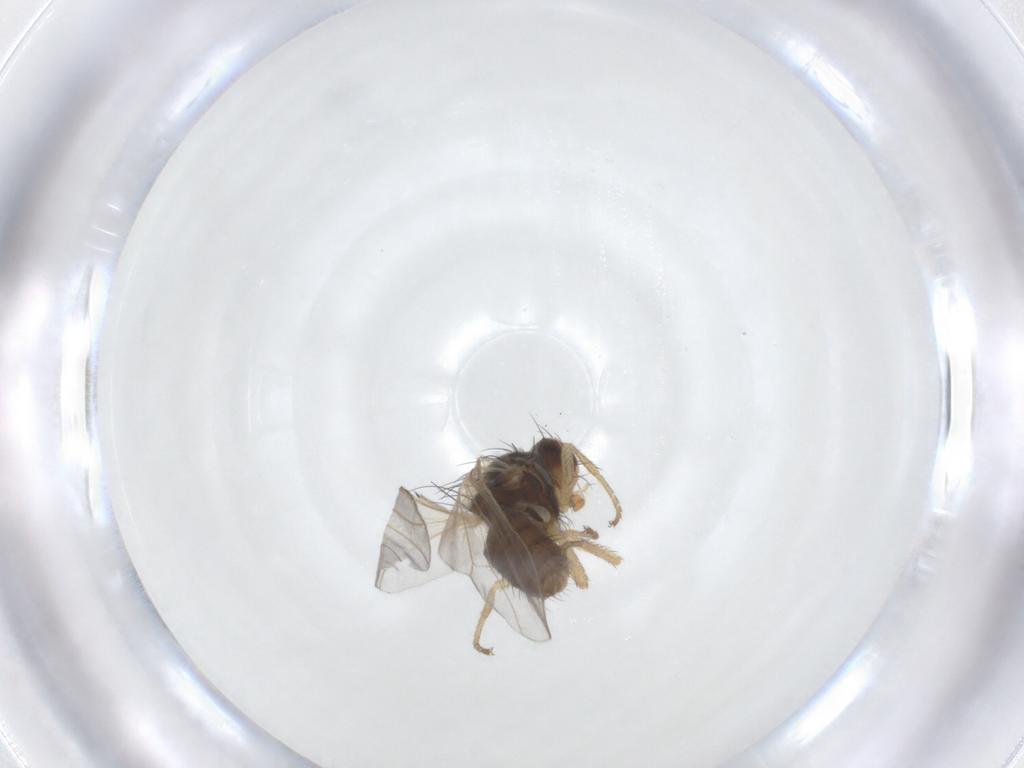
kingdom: Animalia
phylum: Arthropoda
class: Insecta
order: Diptera
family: Heleomyzidae
